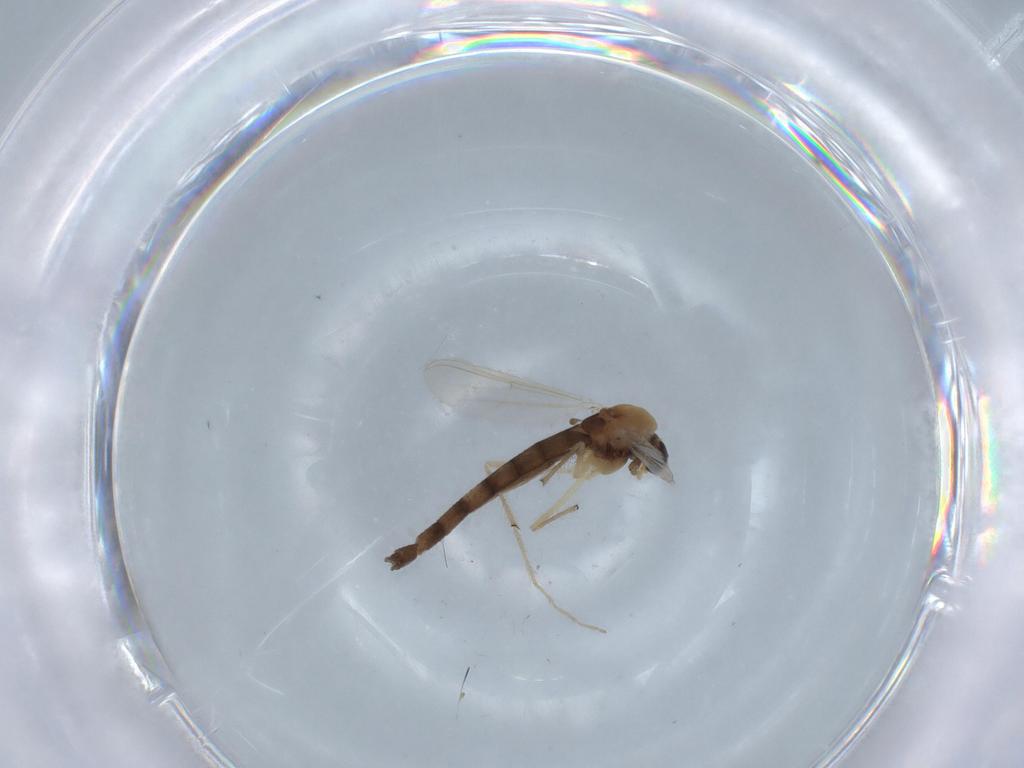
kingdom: Animalia
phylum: Arthropoda
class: Insecta
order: Diptera
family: Chironomidae
